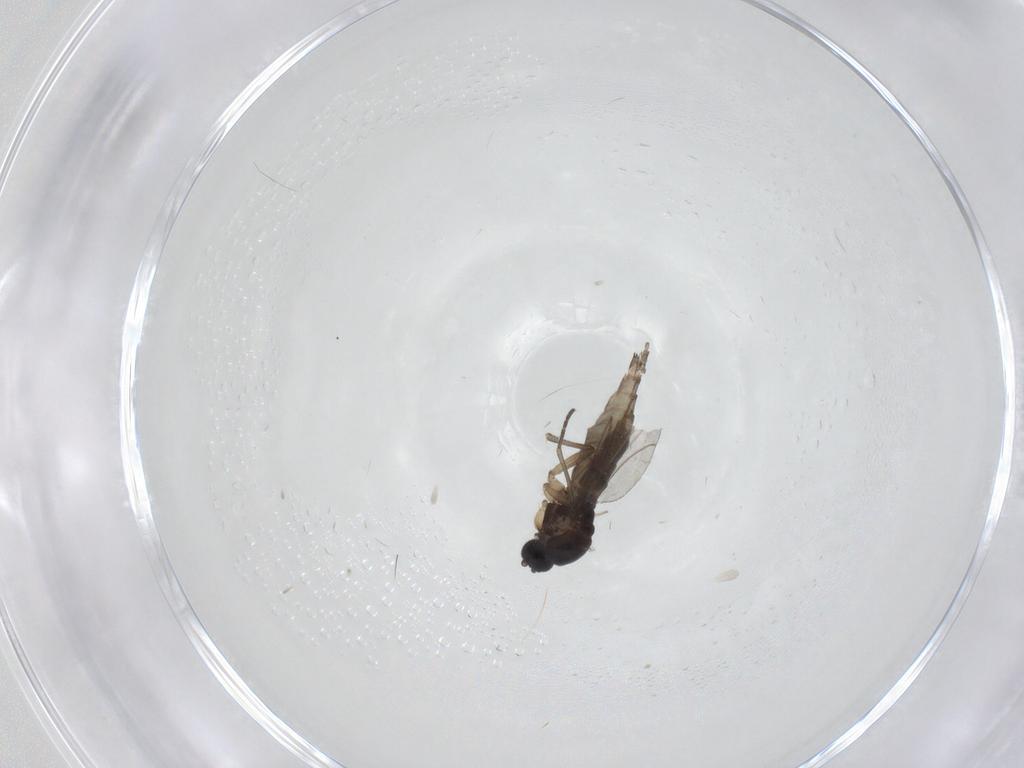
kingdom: Animalia
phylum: Arthropoda
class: Insecta
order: Diptera
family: Sciaridae
